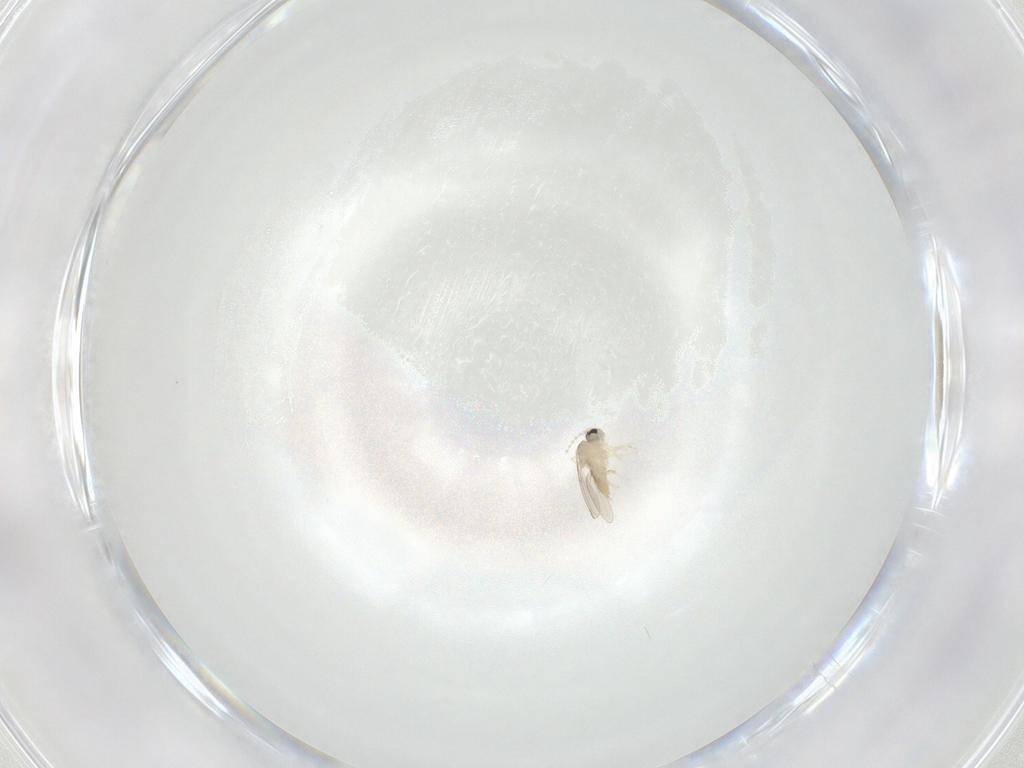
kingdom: Animalia
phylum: Arthropoda
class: Insecta
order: Diptera
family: Cecidomyiidae
